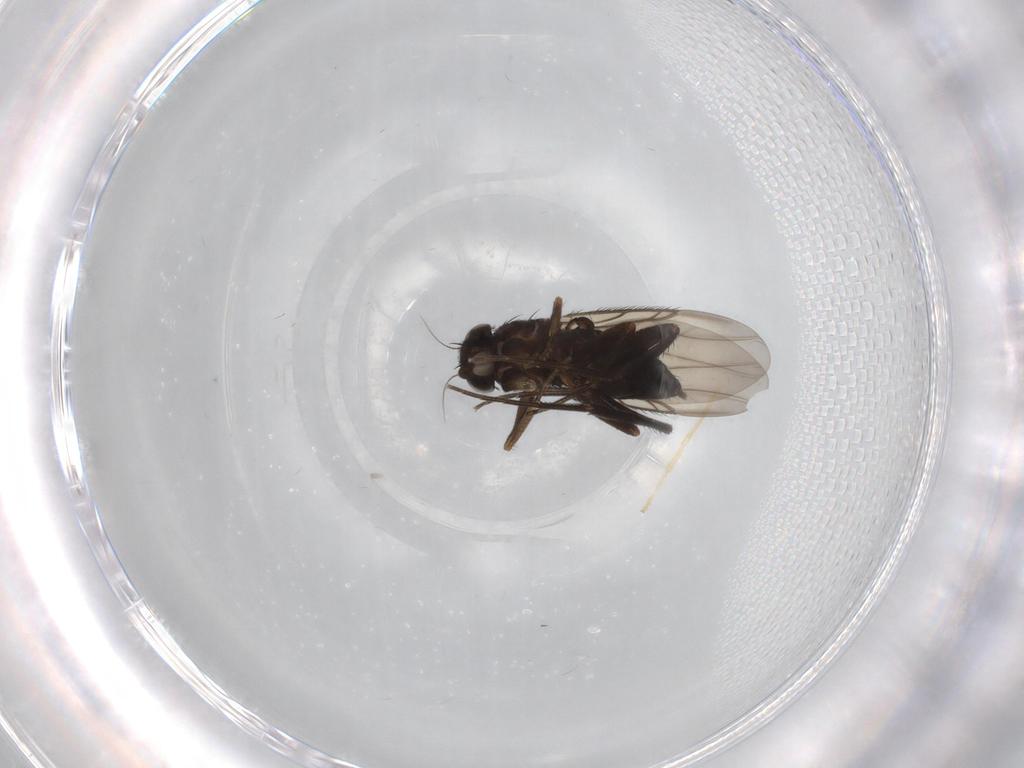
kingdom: Animalia
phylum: Arthropoda
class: Insecta
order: Diptera
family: Phoridae
